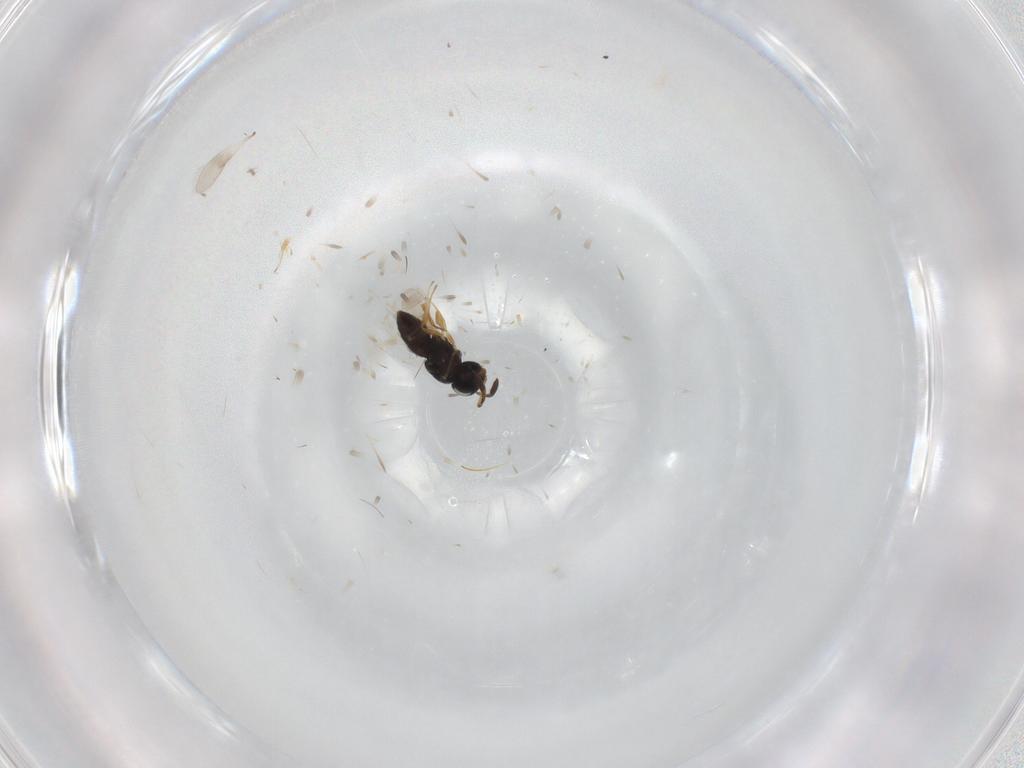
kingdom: Animalia
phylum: Arthropoda
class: Insecta
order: Hymenoptera
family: Scelionidae
